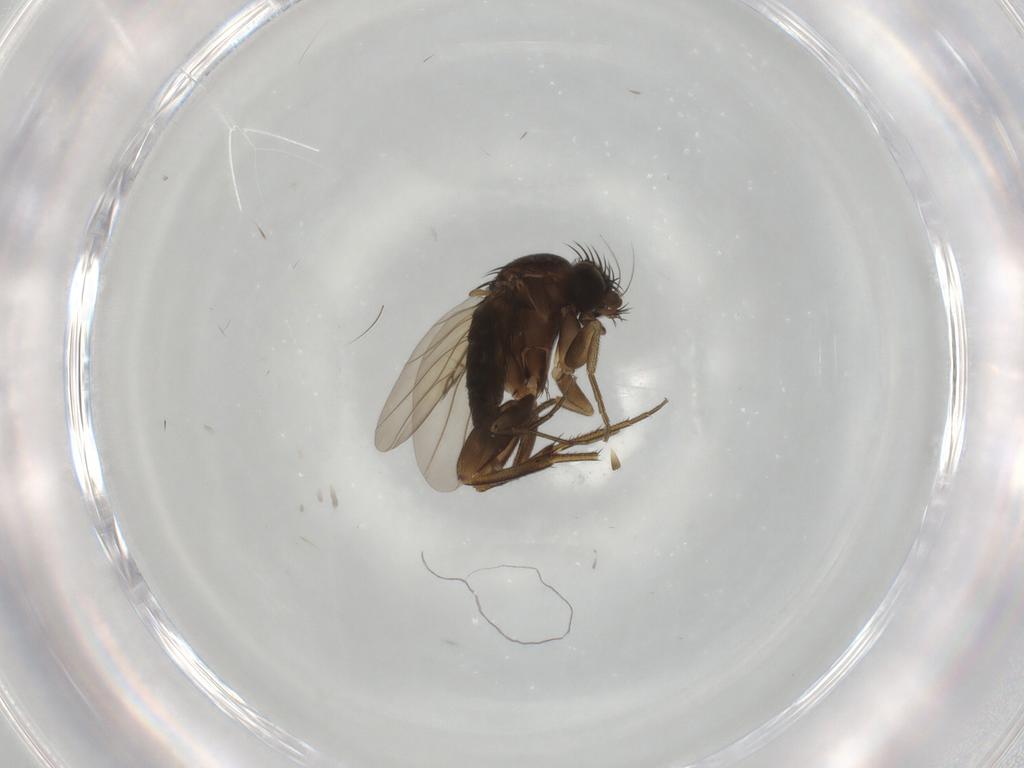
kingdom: Animalia
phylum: Arthropoda
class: Insecta
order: Diptera
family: Phoridae
